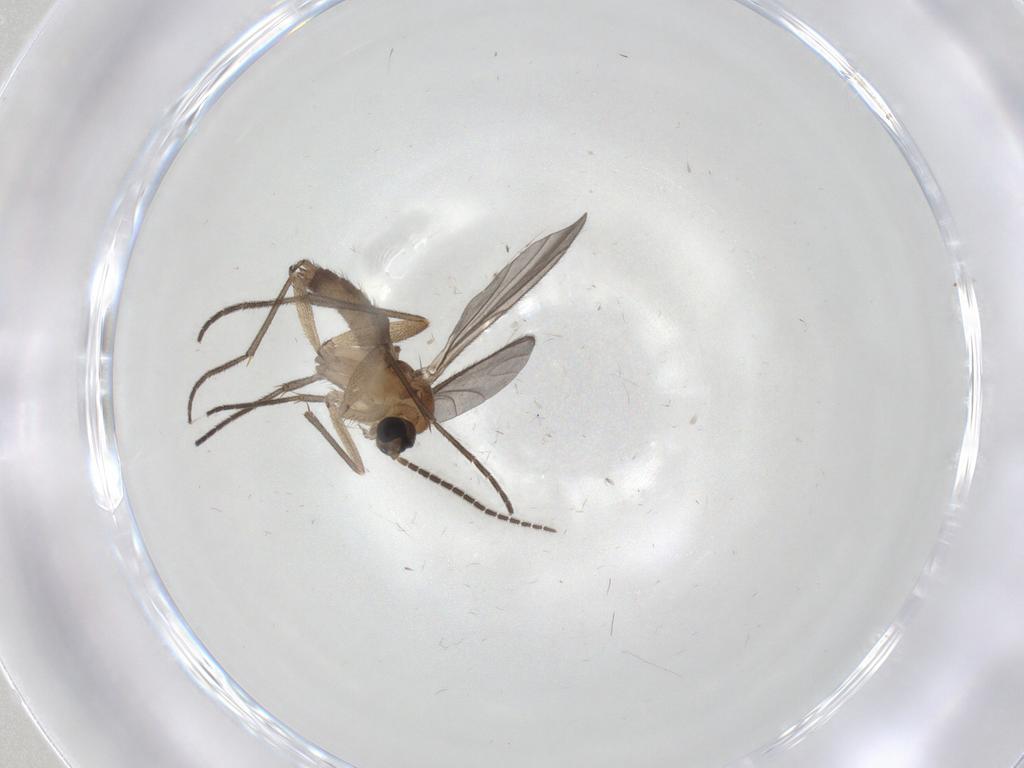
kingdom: Animalia
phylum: Arthropoda
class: Insecta
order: Diptera
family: Sciaridae
